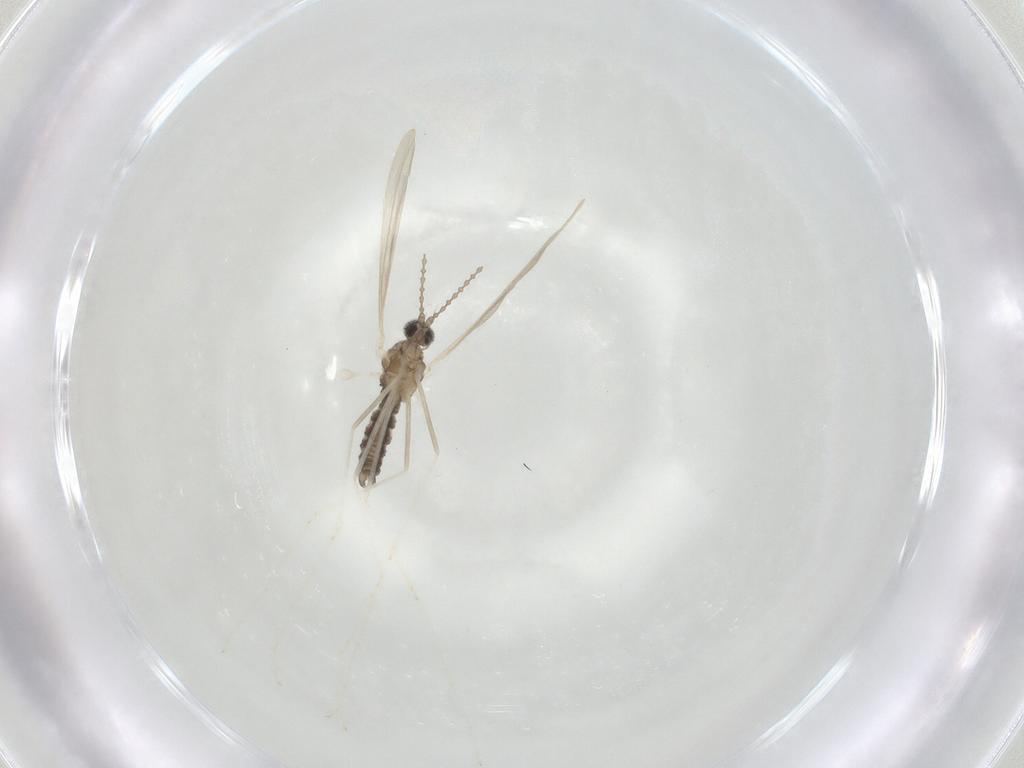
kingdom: Animalia
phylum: Arthropoda
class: Insecta
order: Diptera
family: Cecidomyiidae
